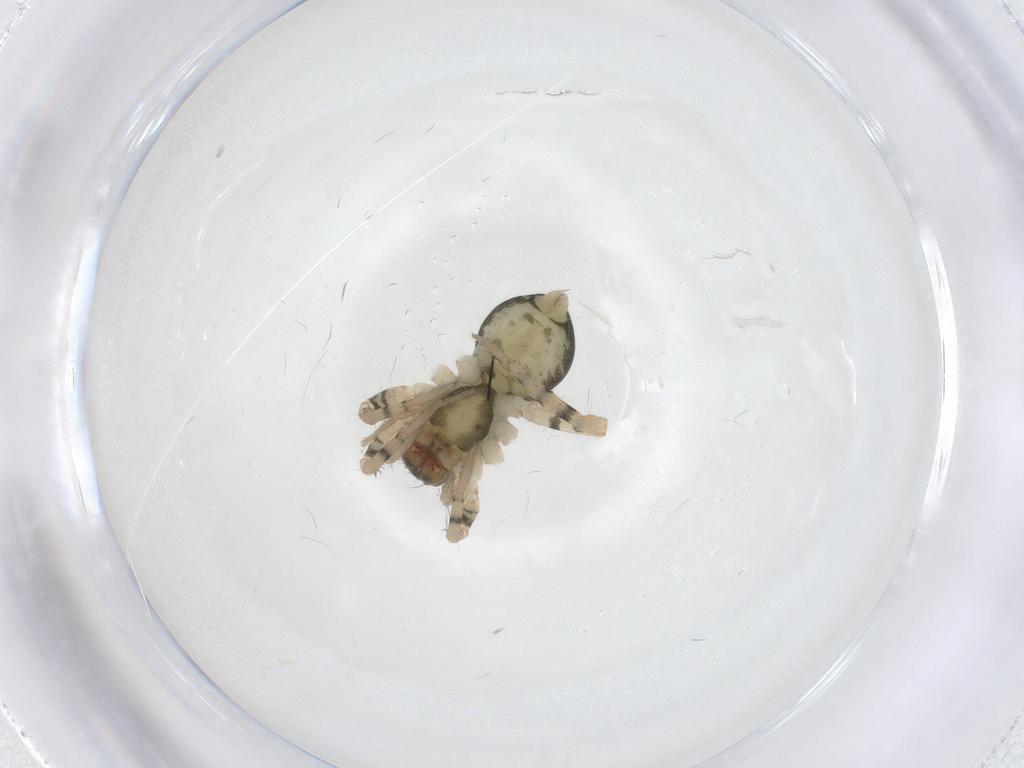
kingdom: Animalia
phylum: Arthropoda
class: Arachnida
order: Araneae
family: Sparassidae
